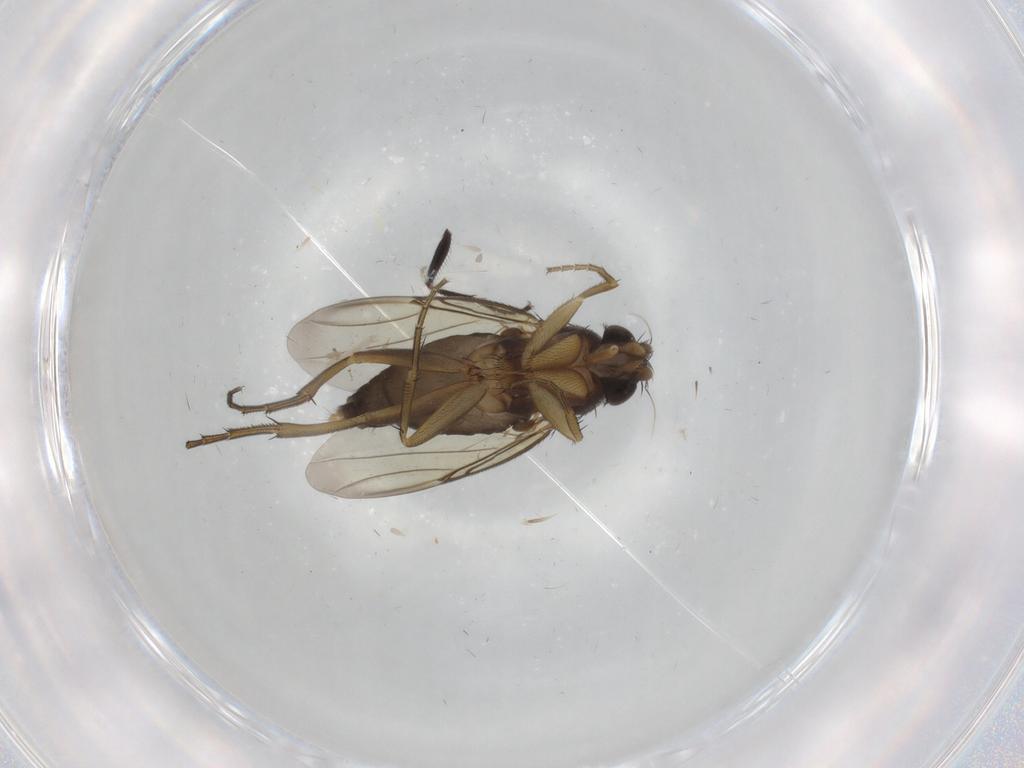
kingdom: Animalia
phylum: Arthropoda
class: Insecta
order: Diptera
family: Phoridae
